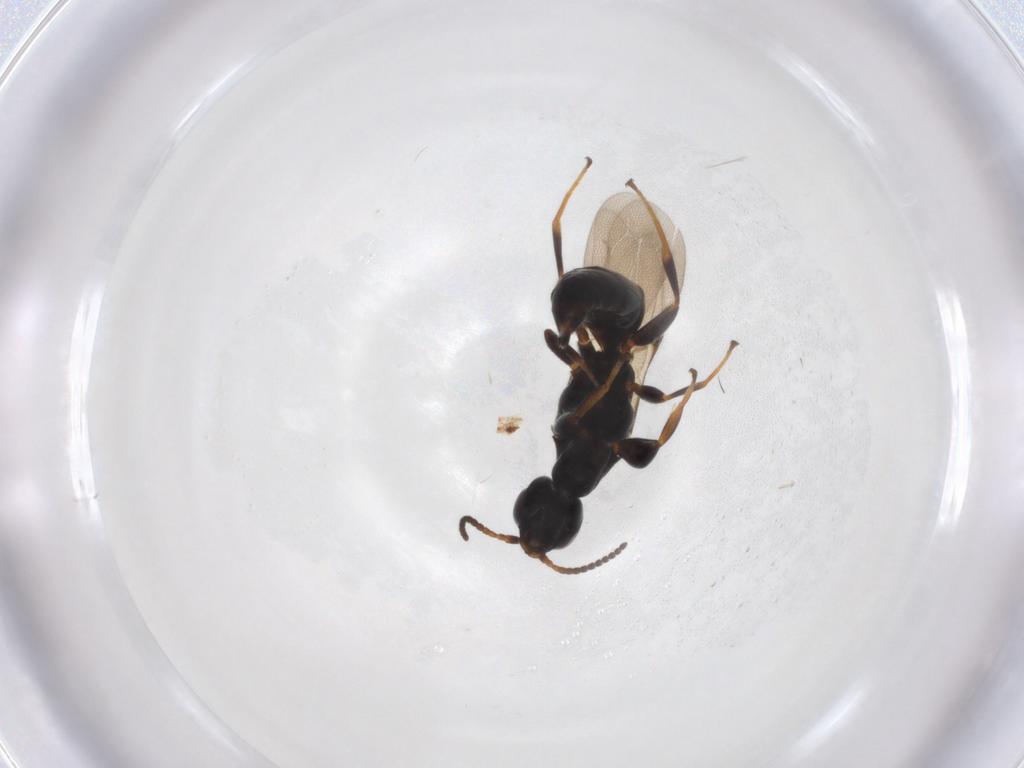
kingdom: Animalia
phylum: Arthropoda
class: Insecta
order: Hymenoptera
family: Bethylidae
